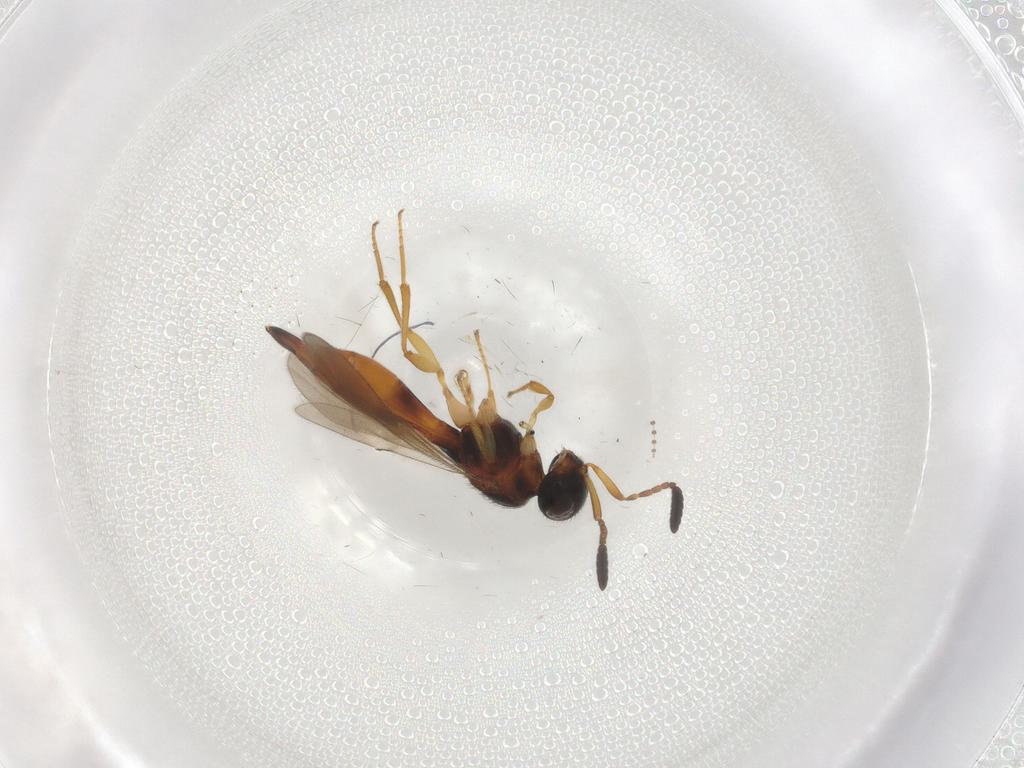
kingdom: Animalia
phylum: Arthropoda
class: Insecta
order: Hymenoptera
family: Scelionidae
